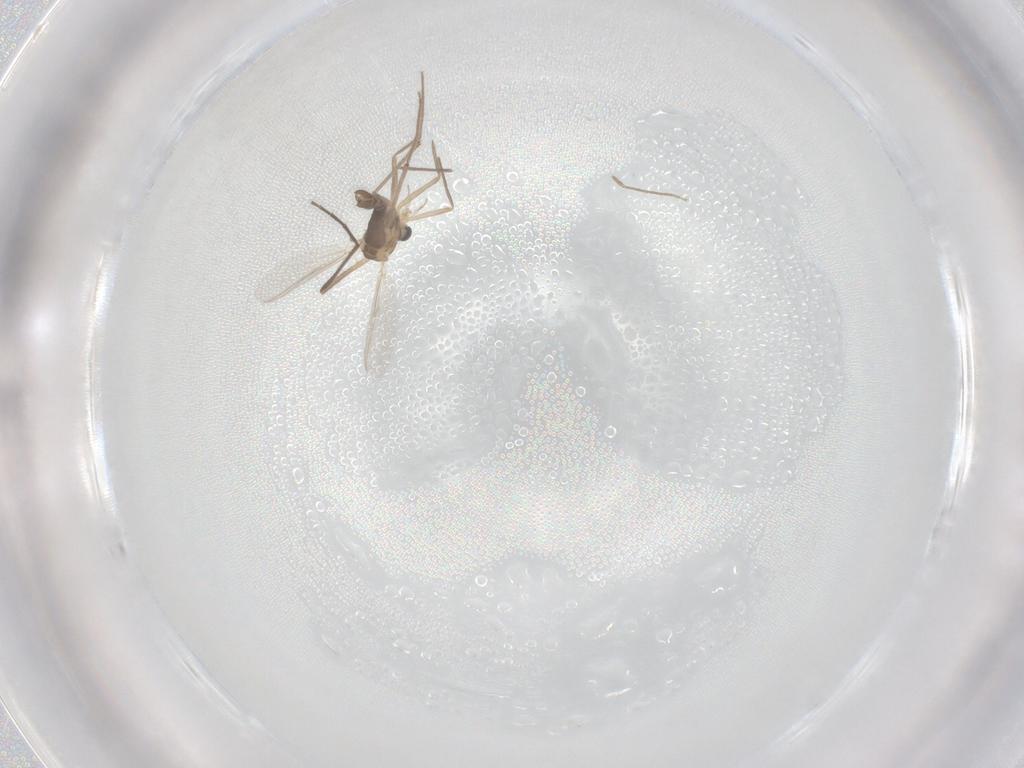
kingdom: Animalia
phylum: Arthropoda
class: Insecta
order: Diptera
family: Chironomidae
